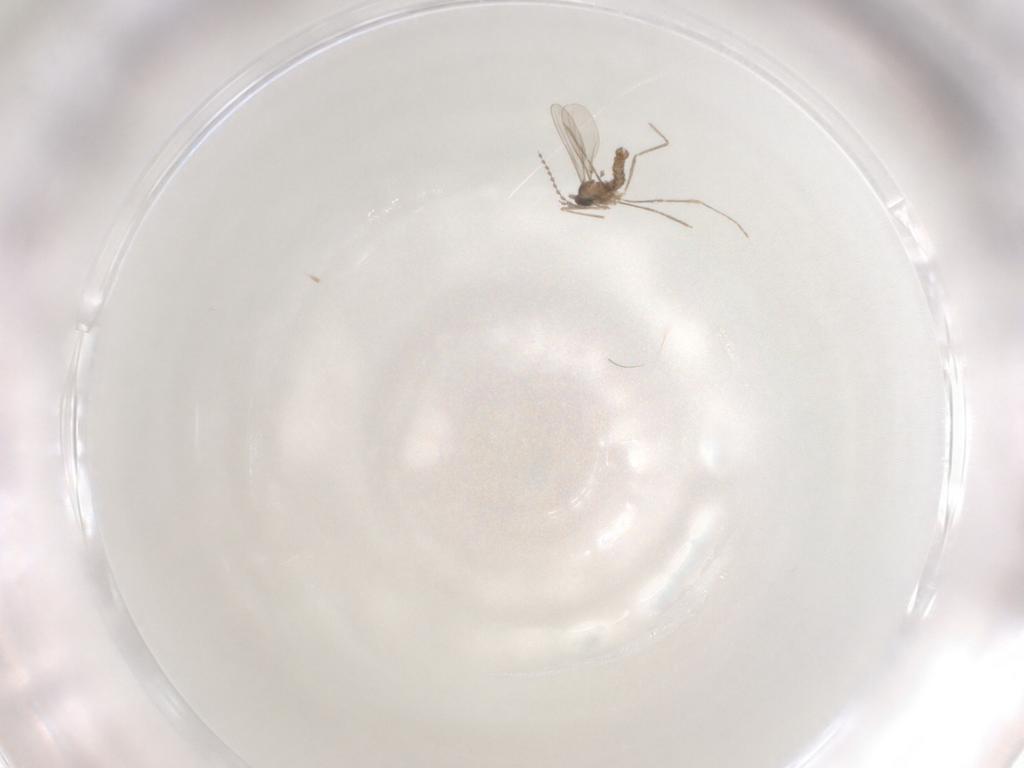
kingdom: Animalia
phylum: Arthropoda
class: Insecta
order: Diptera
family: Cecidomyiidae
